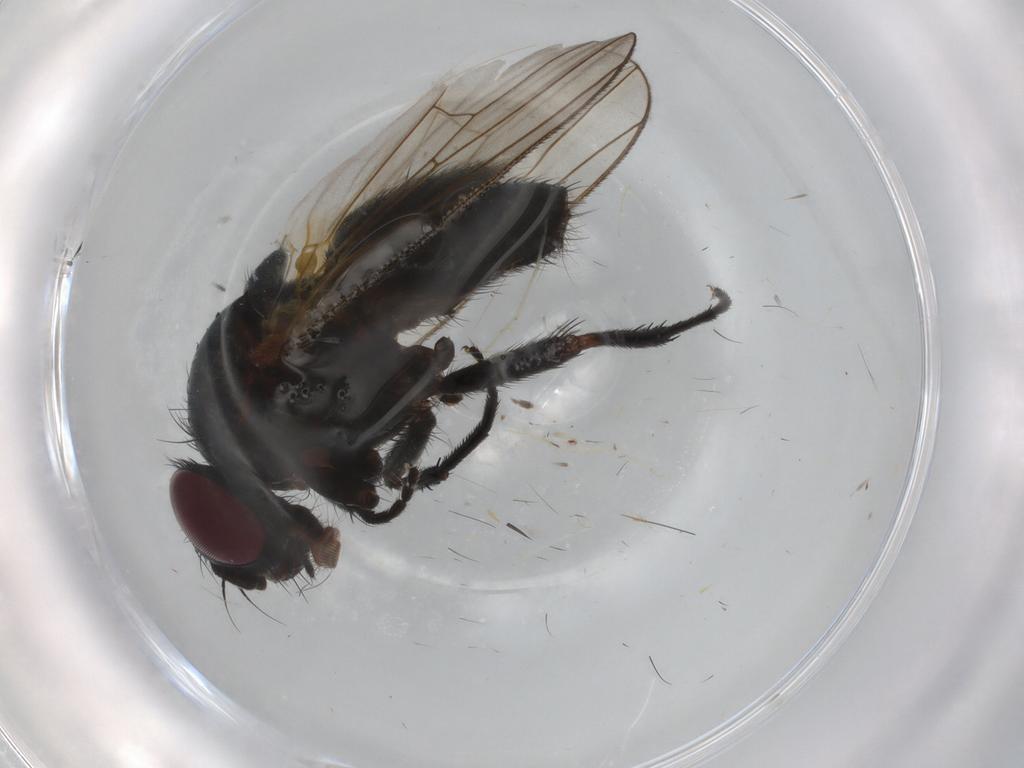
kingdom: Animalia
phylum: Arthropoda
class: Insecta
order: Diptera
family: Fannia
